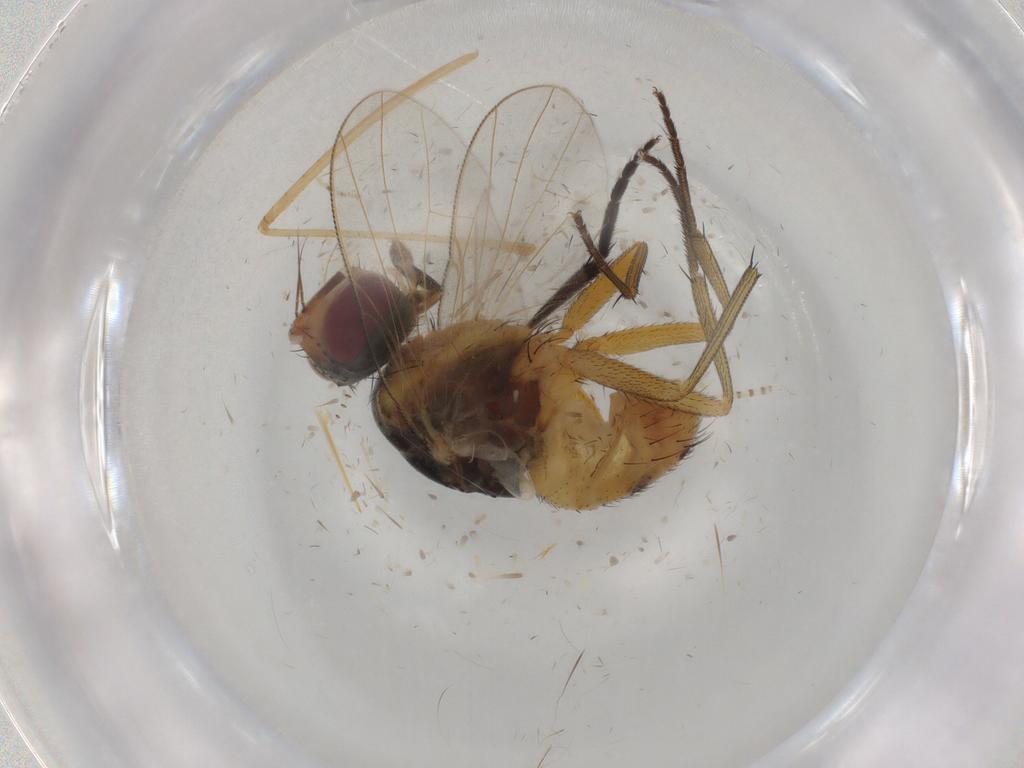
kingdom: Animalia
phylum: Arthropoda
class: Insecta
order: Diptera
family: Muscidae
